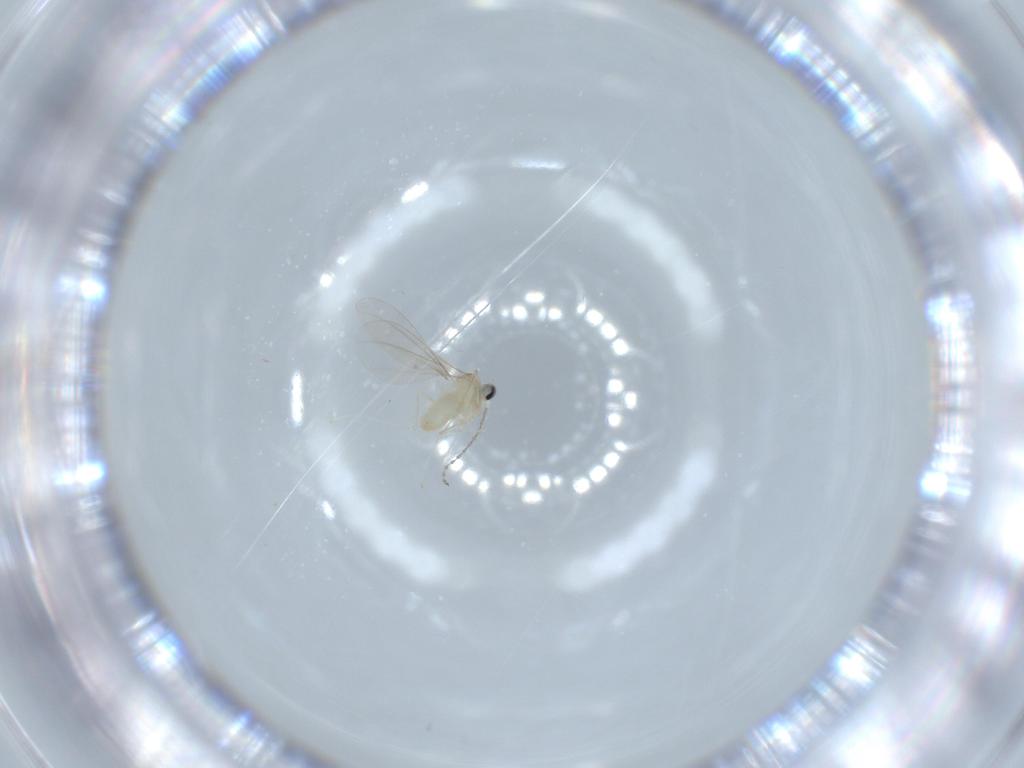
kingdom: Animalia
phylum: Arthropoda
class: Insecta
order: Diptera
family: Cecidomyiidae
